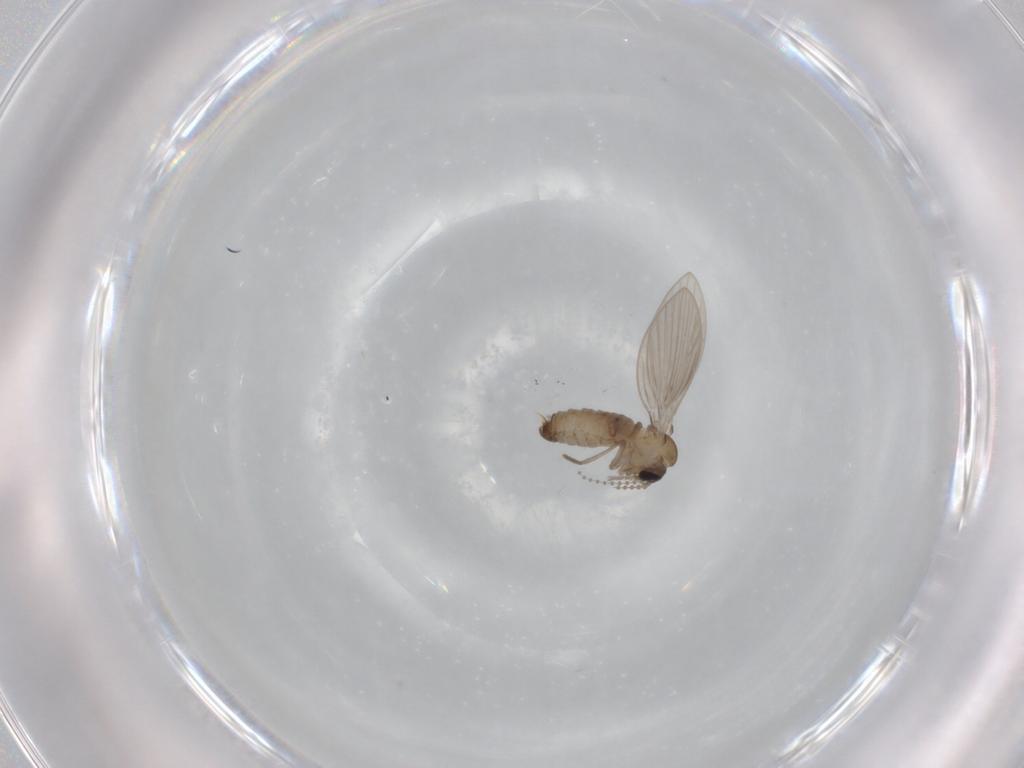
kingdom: Animalia
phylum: Arthropoda
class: Insecta
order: Diptera
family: Psychodidae
